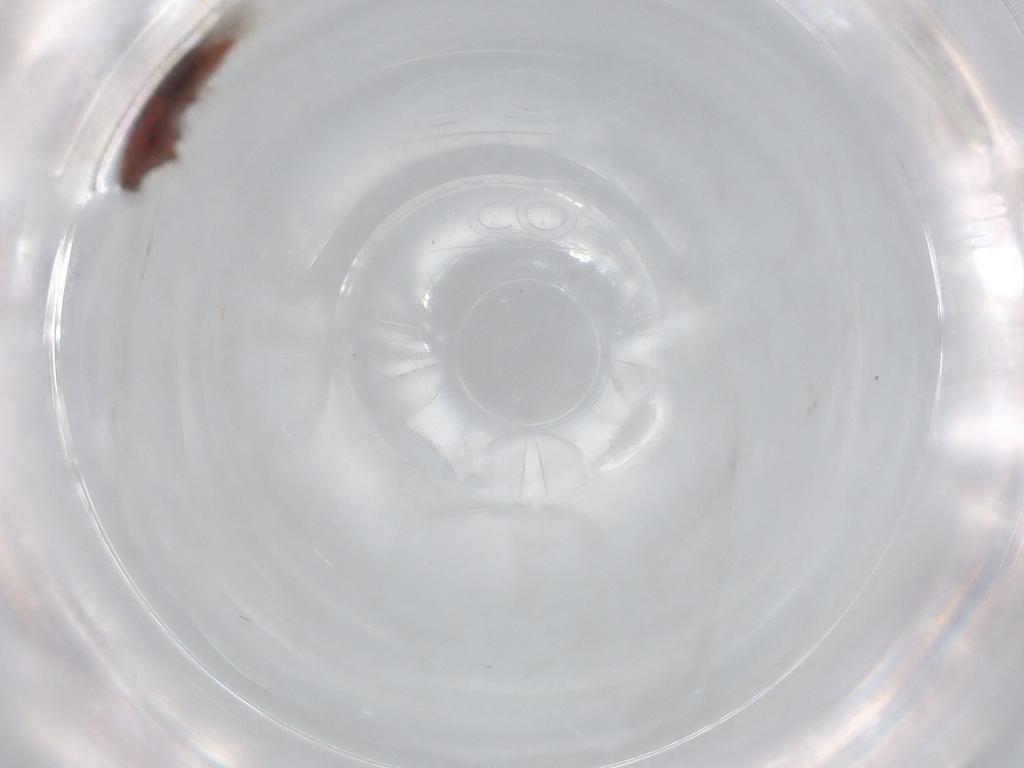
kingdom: Animalia
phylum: Arthropoda
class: Insecta
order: Coleoptera
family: Corylophidae
